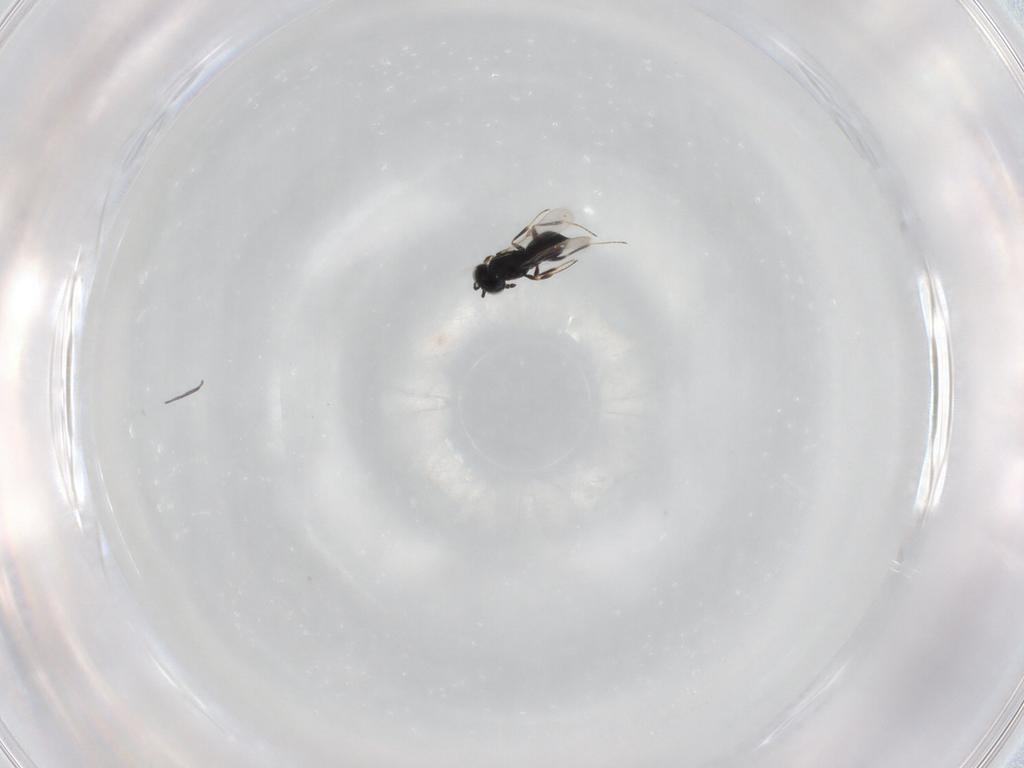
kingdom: Animalia
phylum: Arthropoda
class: Insecta
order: Hymenoptera
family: Scelionidae
